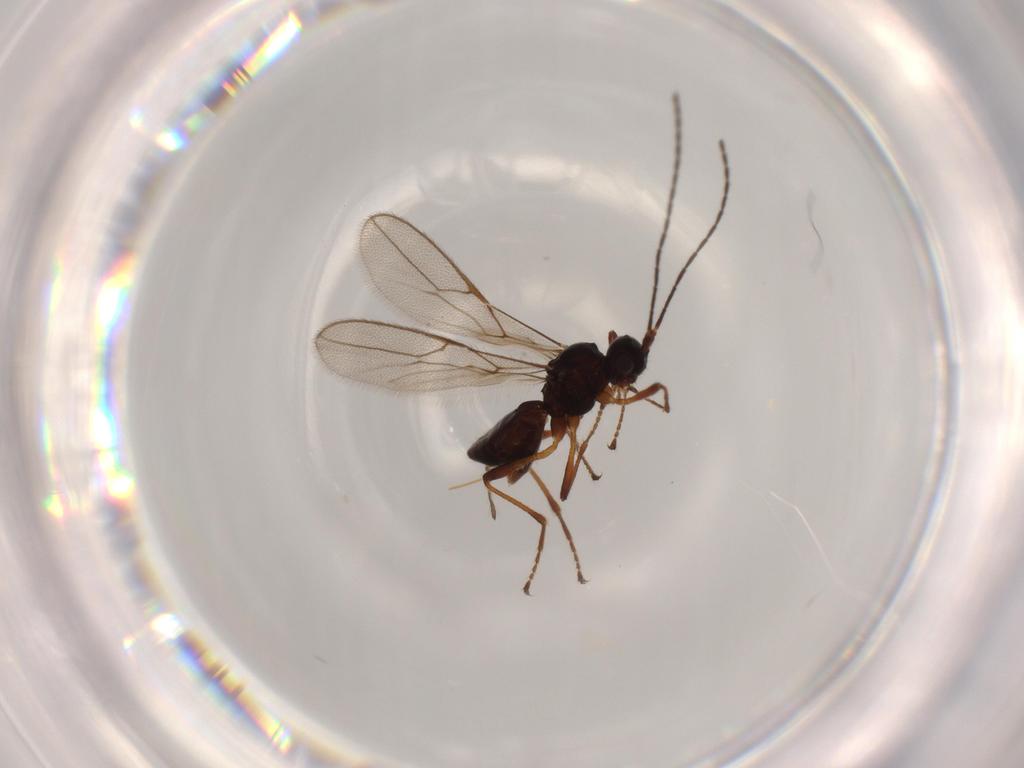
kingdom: Animalia
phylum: Arthropoda
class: Insecta
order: Hymenoptera
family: Braconidae
